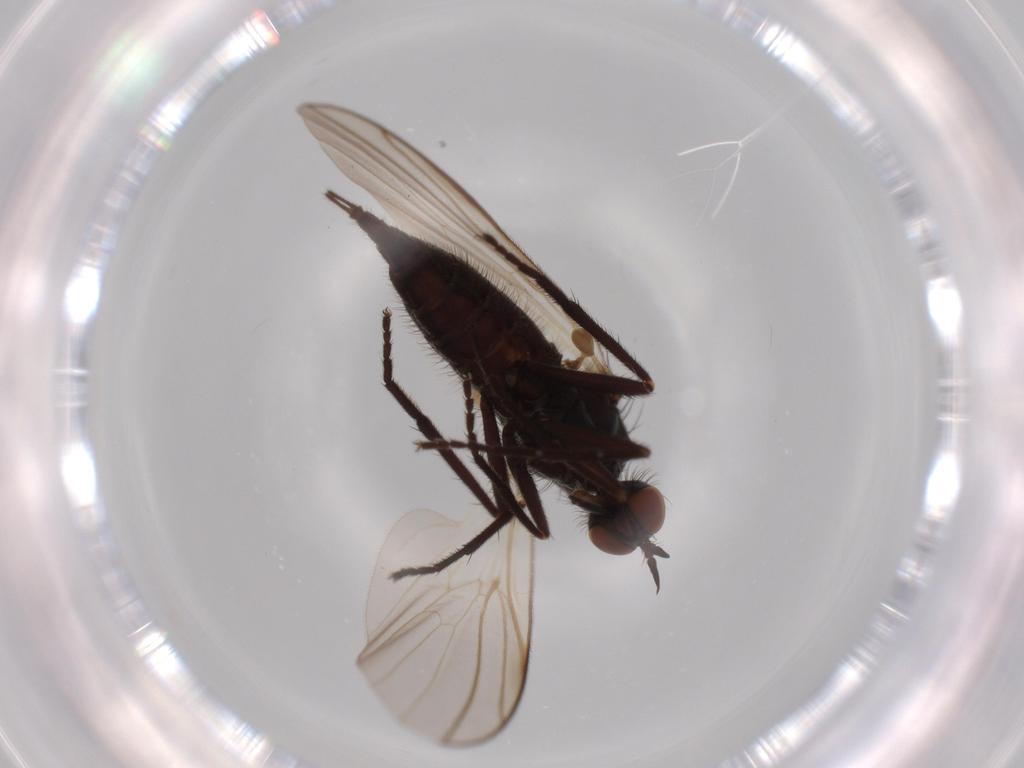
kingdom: Animalia
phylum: Arthropoda
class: Insecta
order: Diptera
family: Empididae
